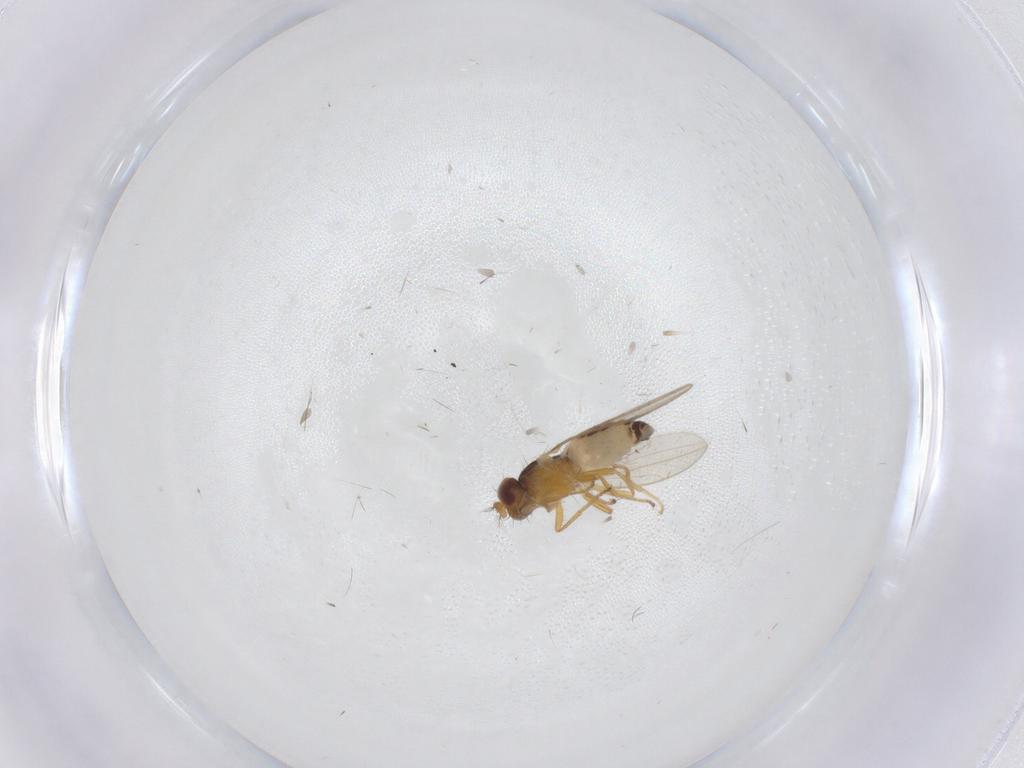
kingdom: Animalia
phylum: Arthropoda
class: Insecta
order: Diptera
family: Periscelididae
